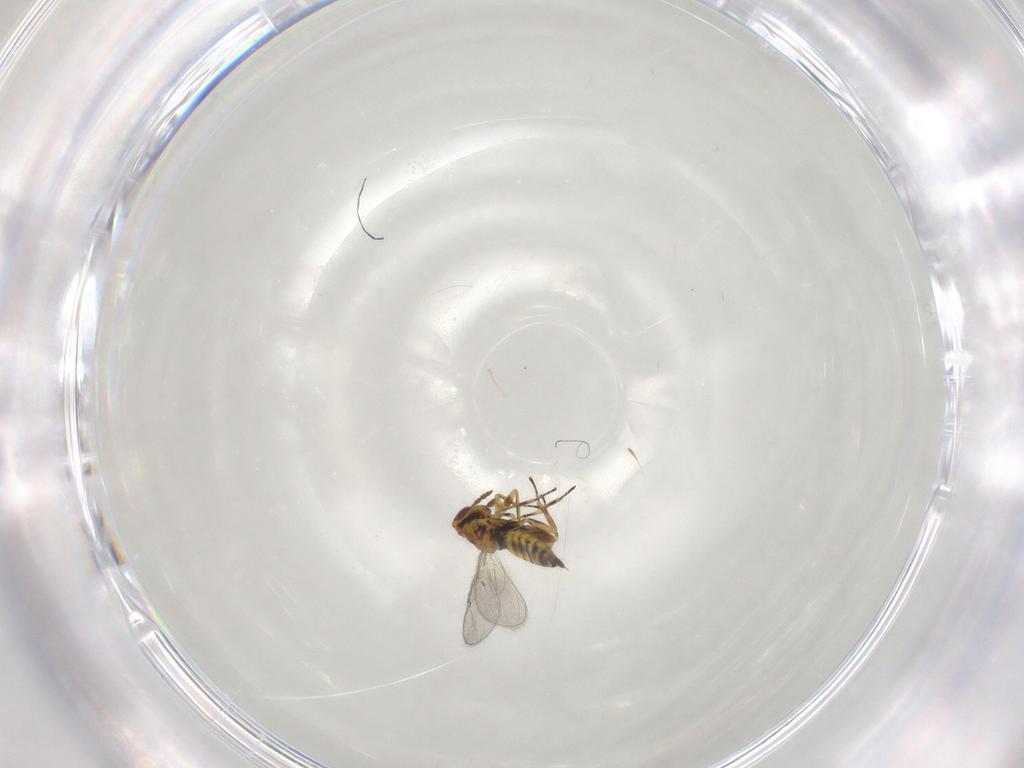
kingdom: Animalia
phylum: Arthropoda
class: Insecta
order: Hymenoptera
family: Eulophidae
